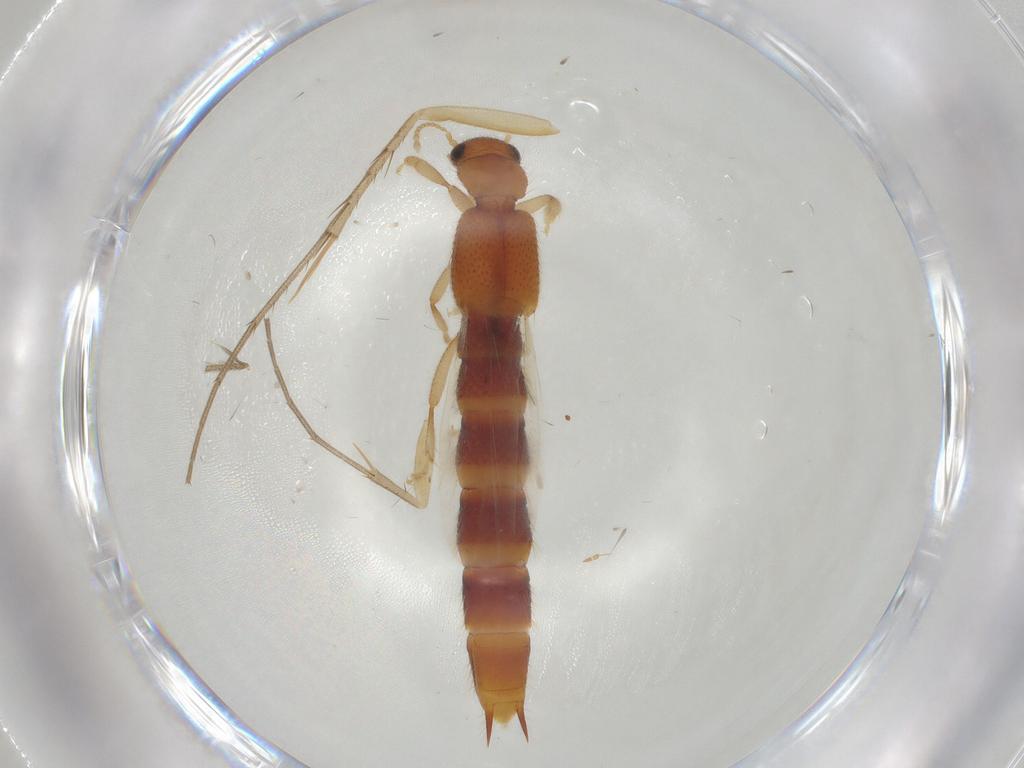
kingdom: Animalia
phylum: Arthropoda
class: Insecta
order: Coleoptera
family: Staphylinidae
